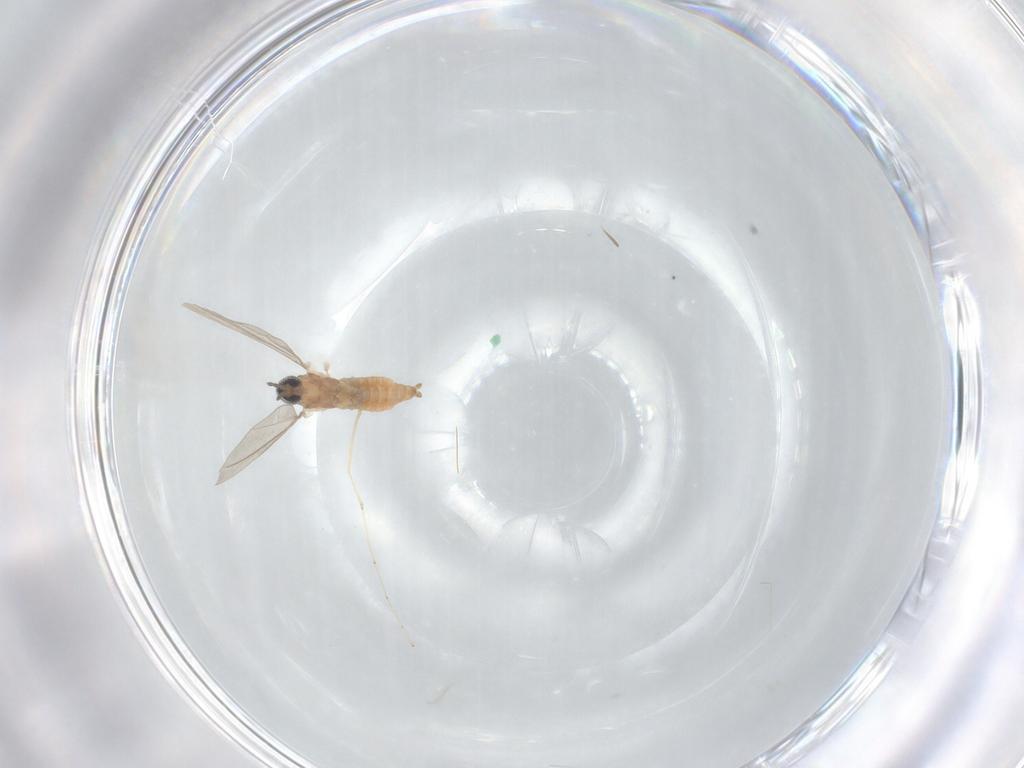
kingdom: Animalia
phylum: Arthropoda
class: Insecta
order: Diptera
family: Cecidomyiidae
